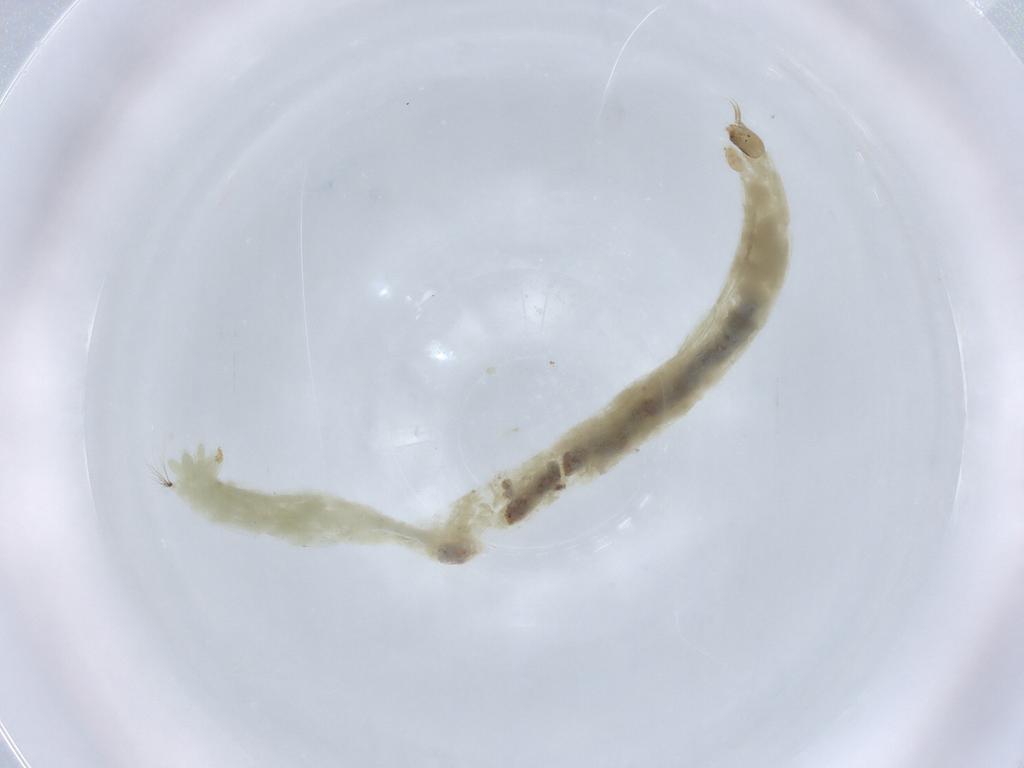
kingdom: Animalia
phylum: Arthropoda
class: Insecta
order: Diptera
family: Chironomidae
